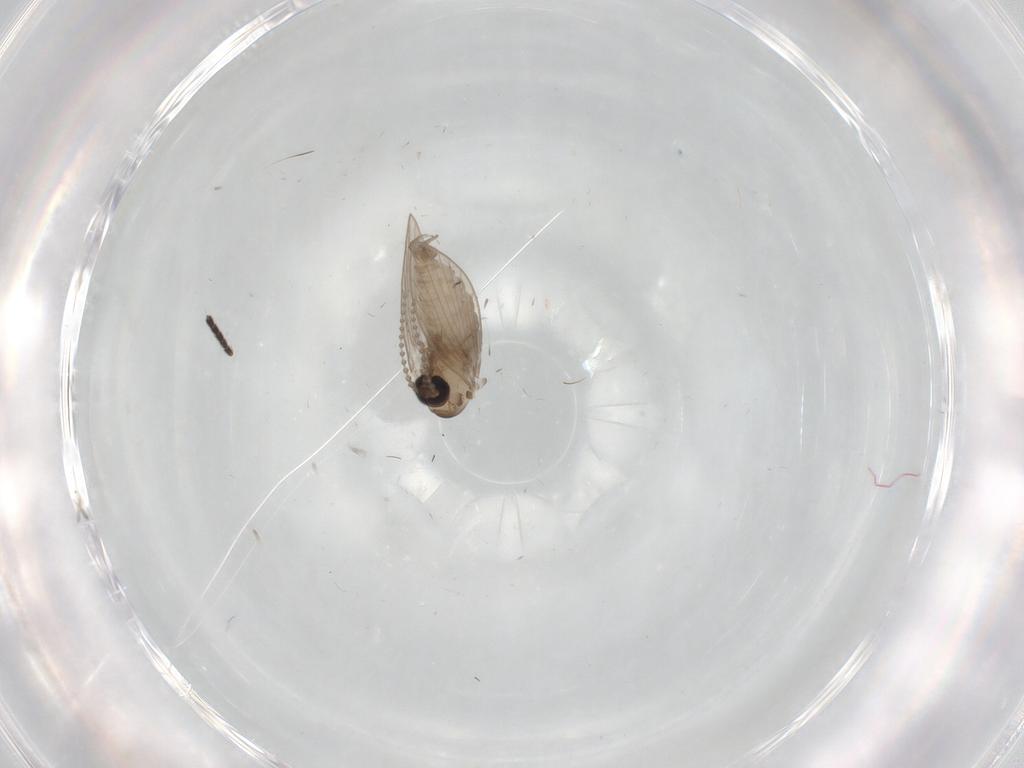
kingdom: Animalia
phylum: Arthropoda
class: Insecta
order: Diptera
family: Psychodidae
